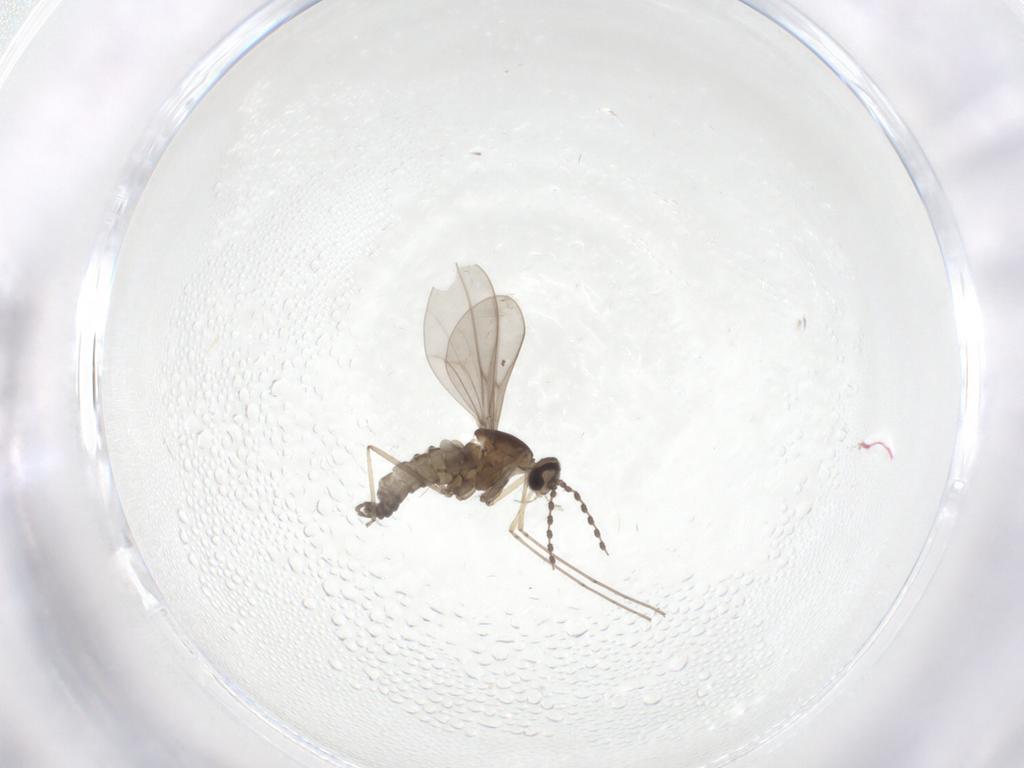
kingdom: Animalia
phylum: Arthropoda
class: Insecta
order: Diptera
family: Cecidomyiidae
